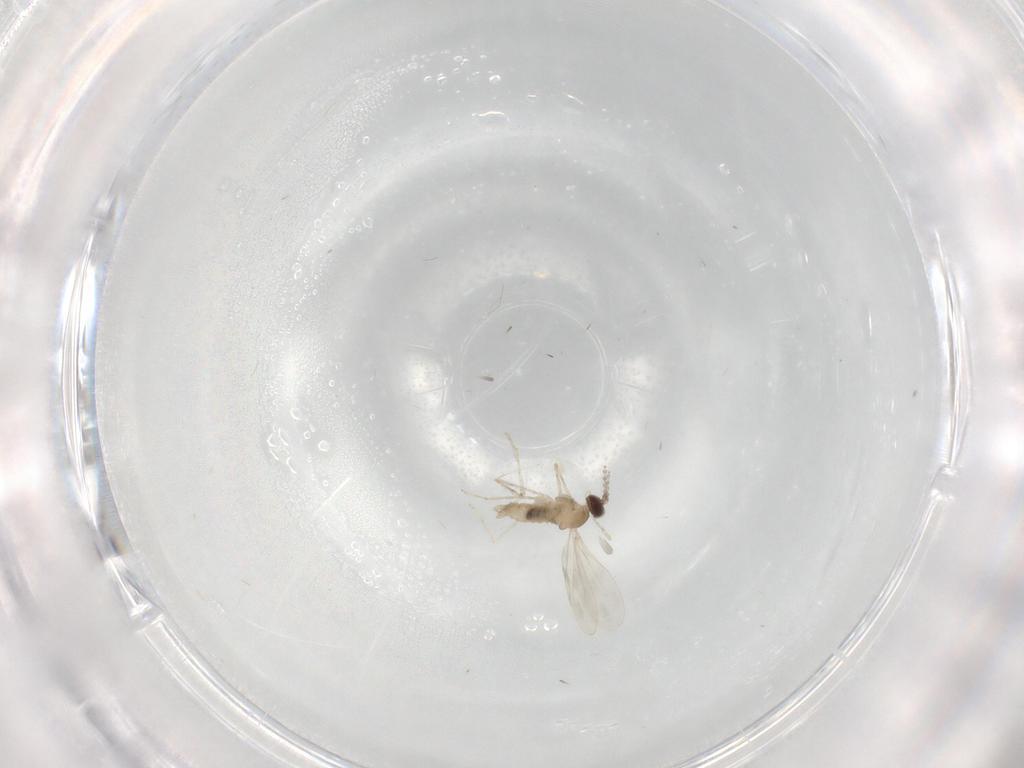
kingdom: Animalia
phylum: Arthropoda
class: Insecta
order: Diptera
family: Cecidomyiidae
